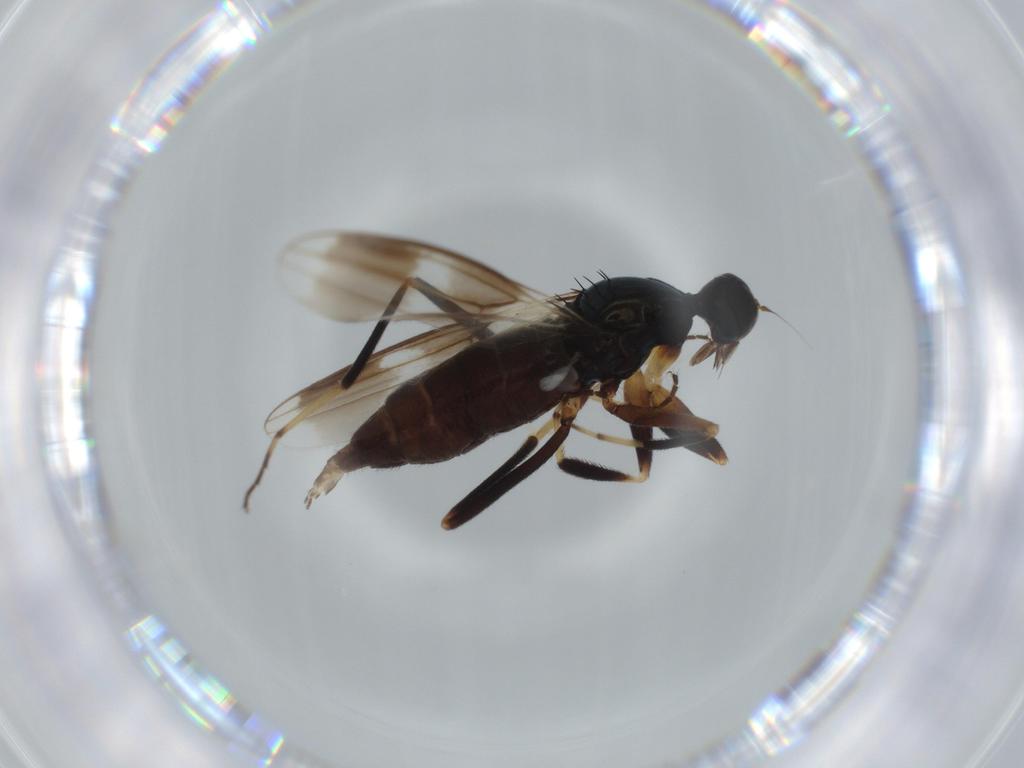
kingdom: Animalia
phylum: Arthropoda
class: Insecta
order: Diptera
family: Hybotidae
